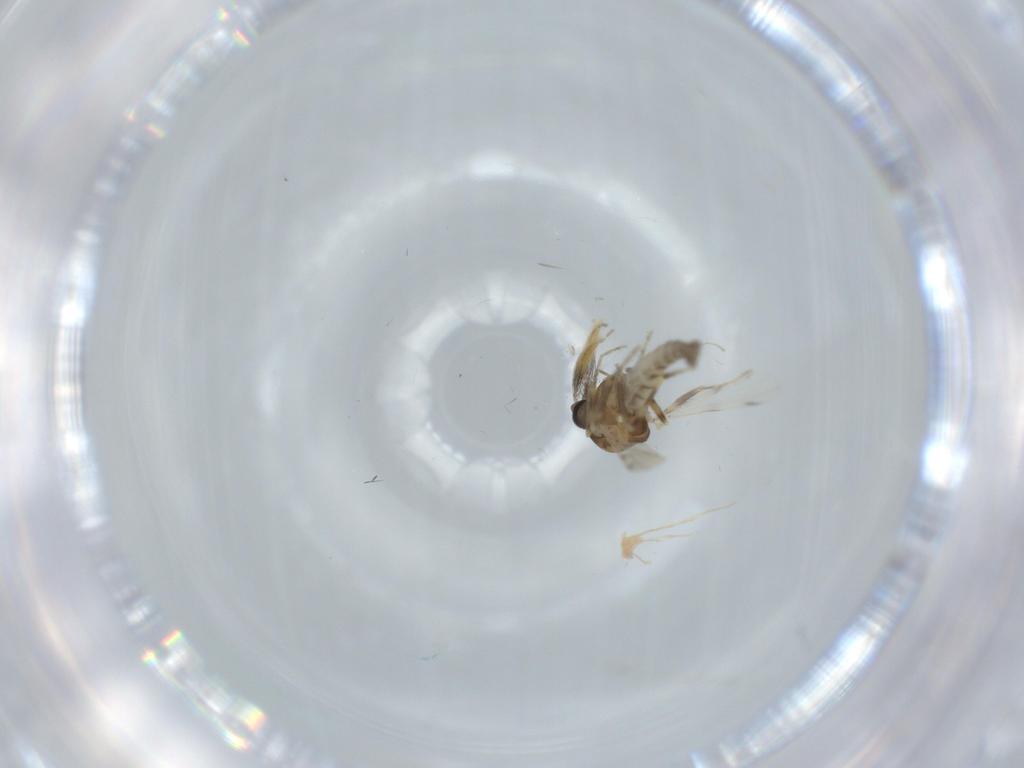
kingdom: Animalia
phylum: Arthropoda
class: Insecta
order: Diptera
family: Ceratopogonidae
